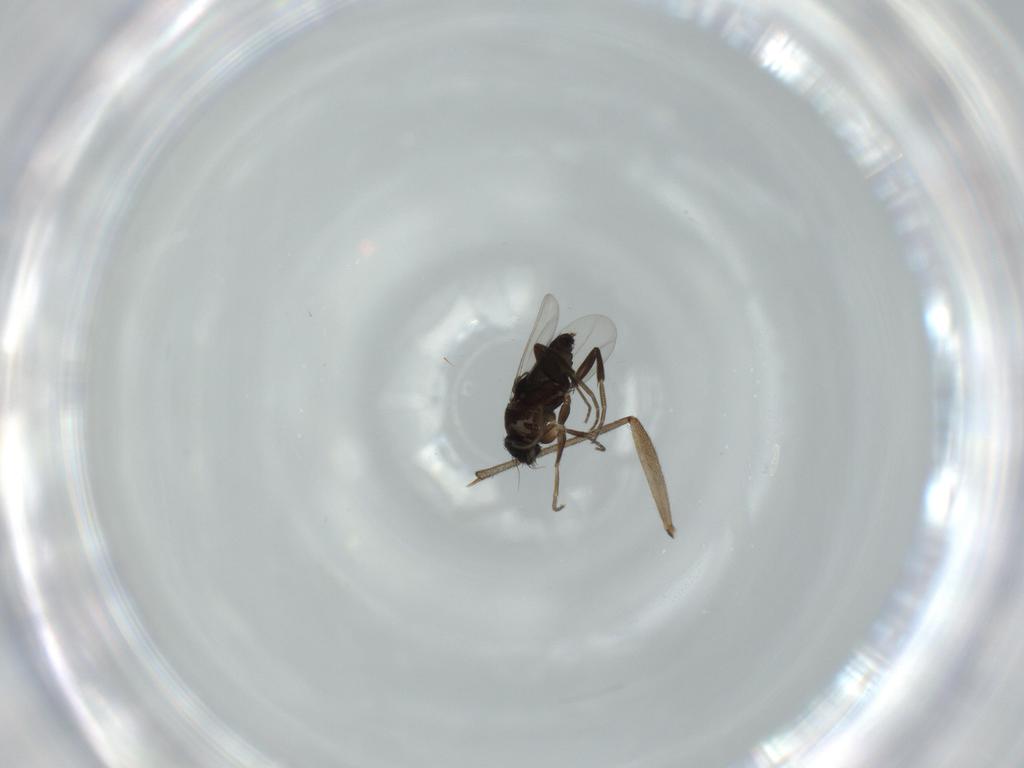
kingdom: Animalia
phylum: Arthropoda
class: Insecta
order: Diptera
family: Phoridae
